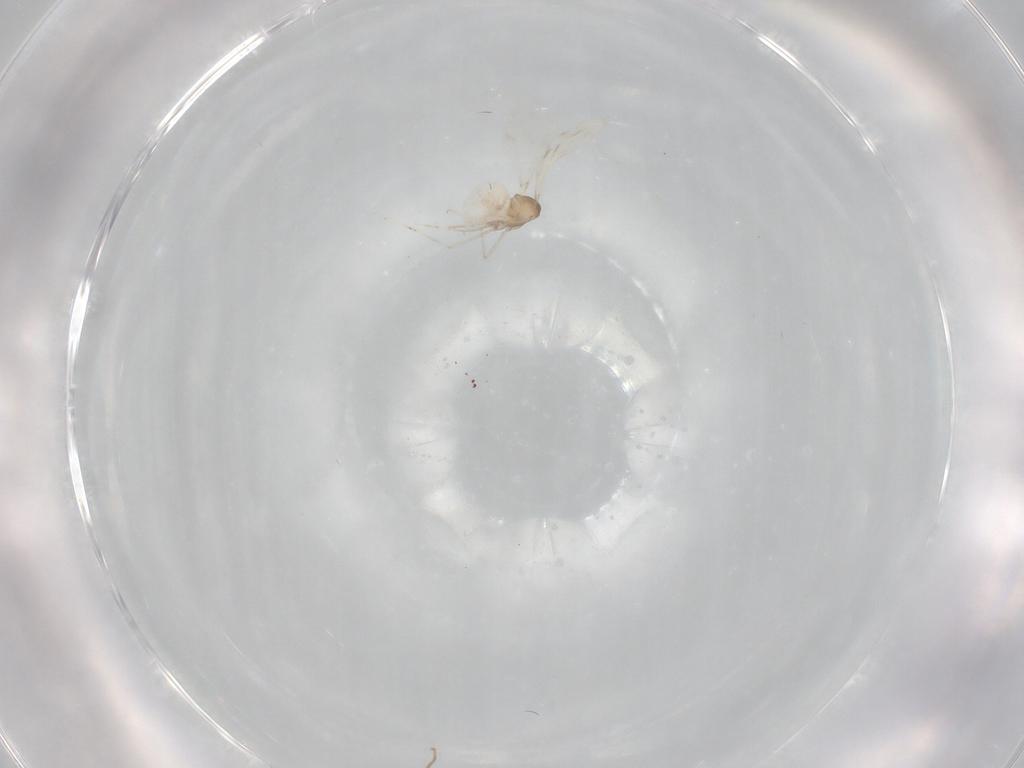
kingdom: Animalia
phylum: Arthropoda
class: Insecta
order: Diptera
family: Cecidomyiidae
